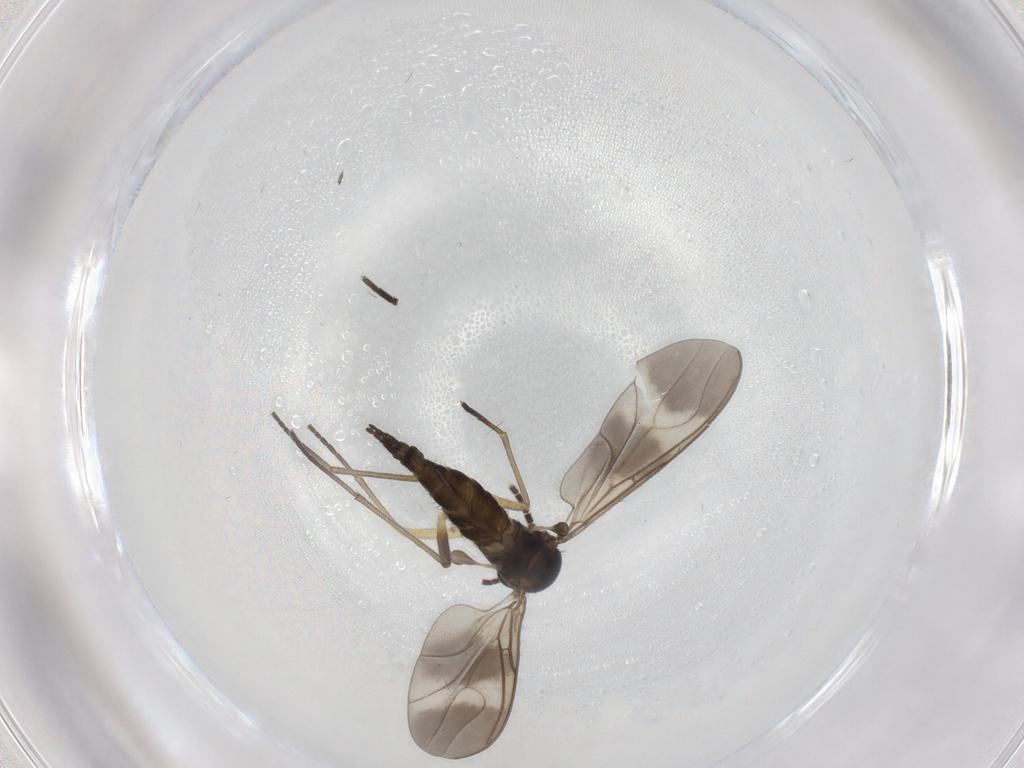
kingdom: Animalia
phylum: Arthropoda
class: Insecta
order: Diptera
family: Sciaridae
